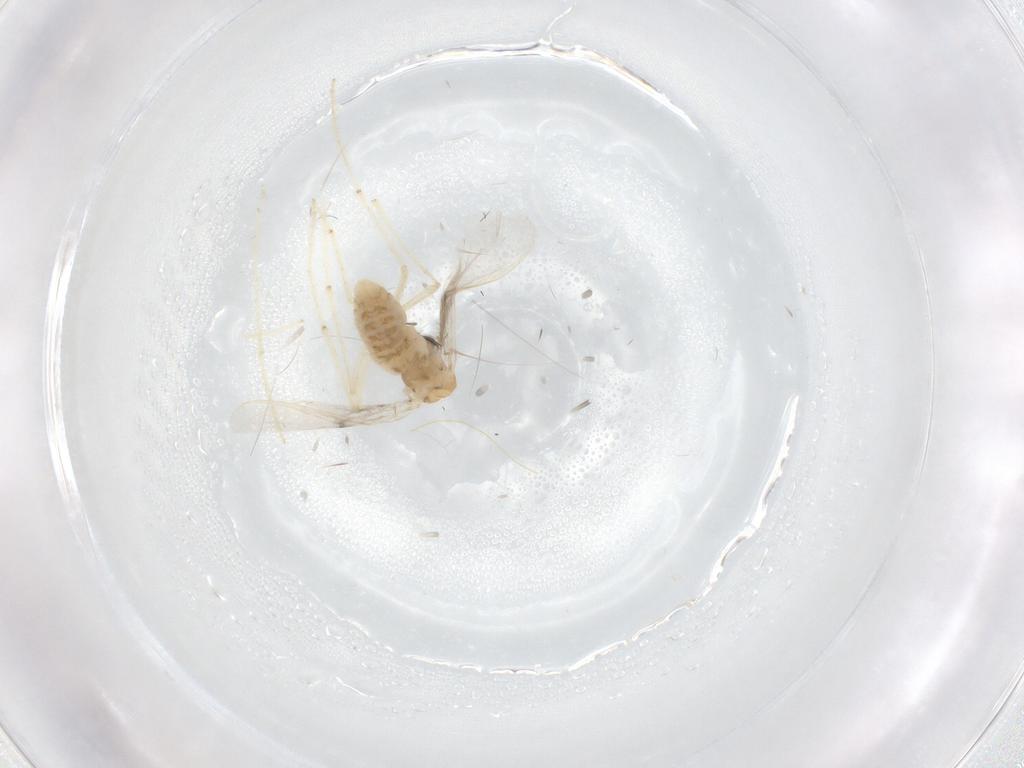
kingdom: Animalia
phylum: Arthropoda
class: Insecta
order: Diptera
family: Chironomidae
